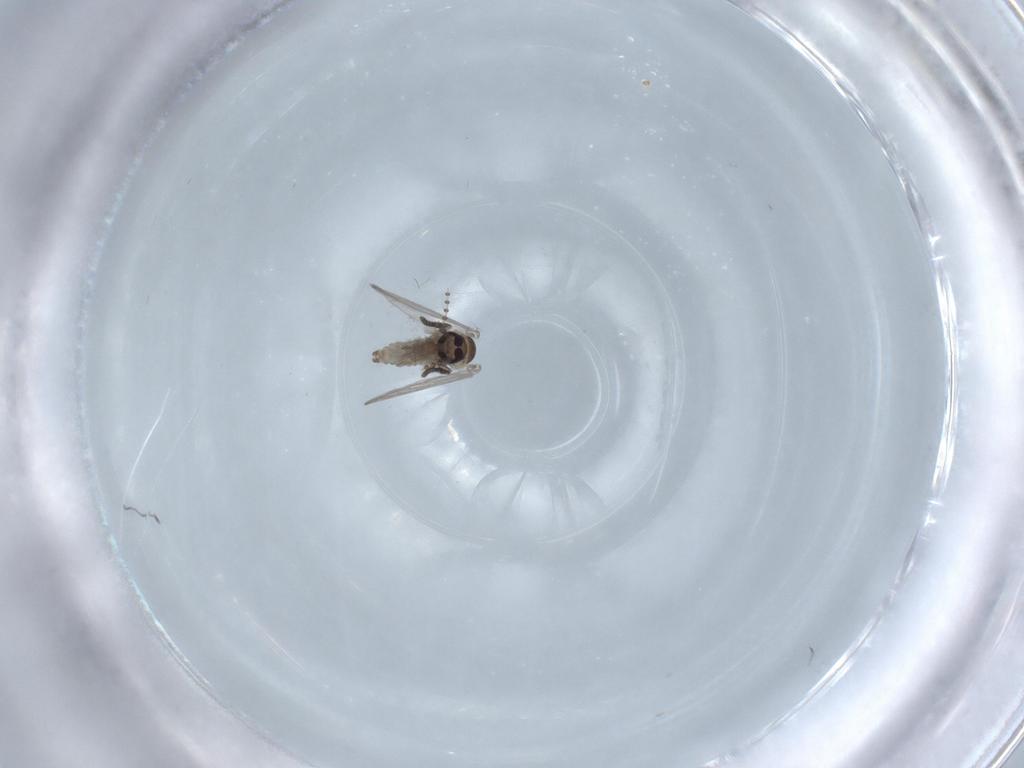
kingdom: Animalia
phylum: Arthropoda
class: Insecta
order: Diptera
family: Psychodidae
